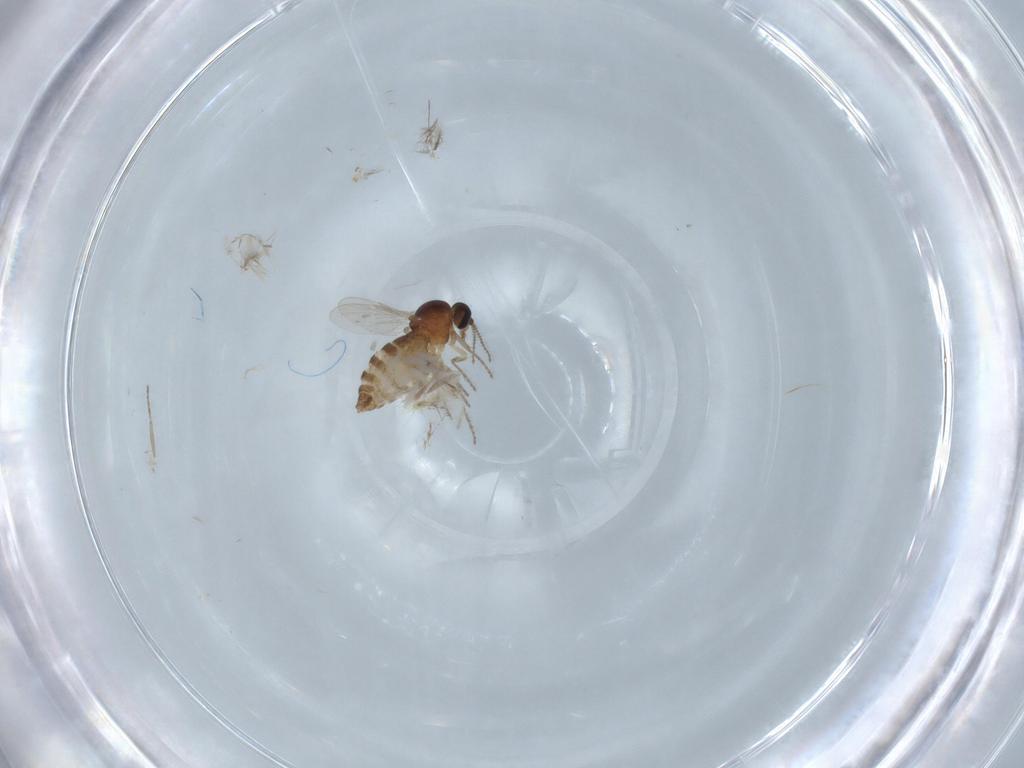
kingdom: Animalia
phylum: Arthropoda
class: Insecta
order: Diptera
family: Ceratopogonidae
